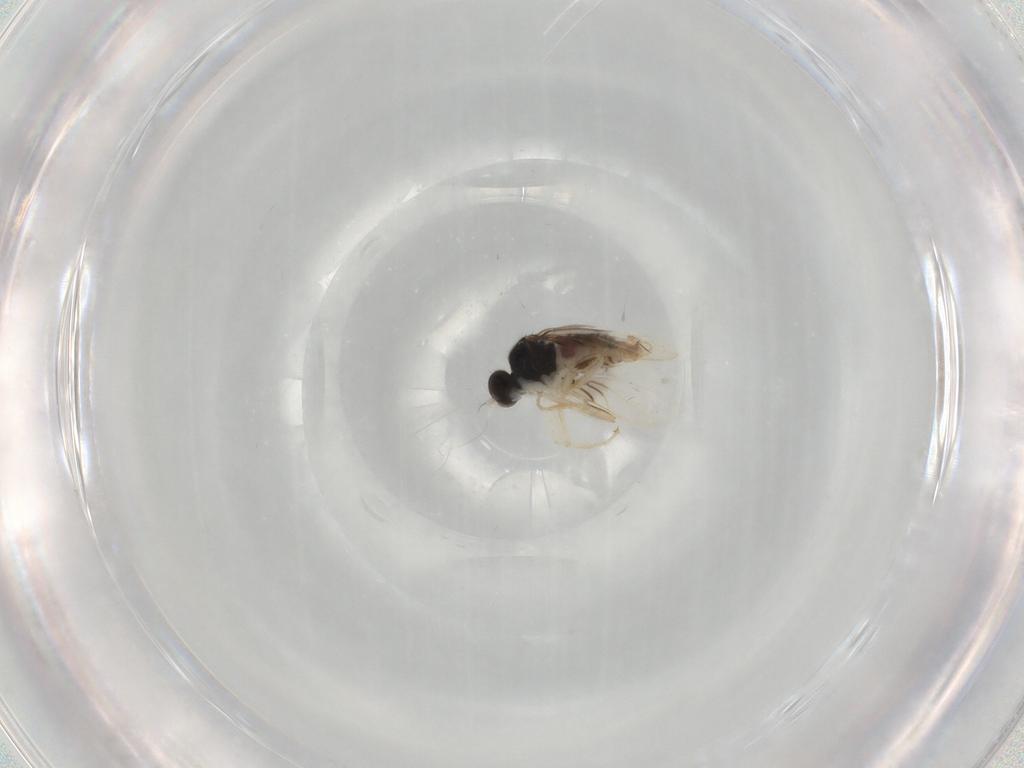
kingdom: Animalia
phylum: Arthropoda
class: Insecta
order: Diptera
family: Hybotidae
